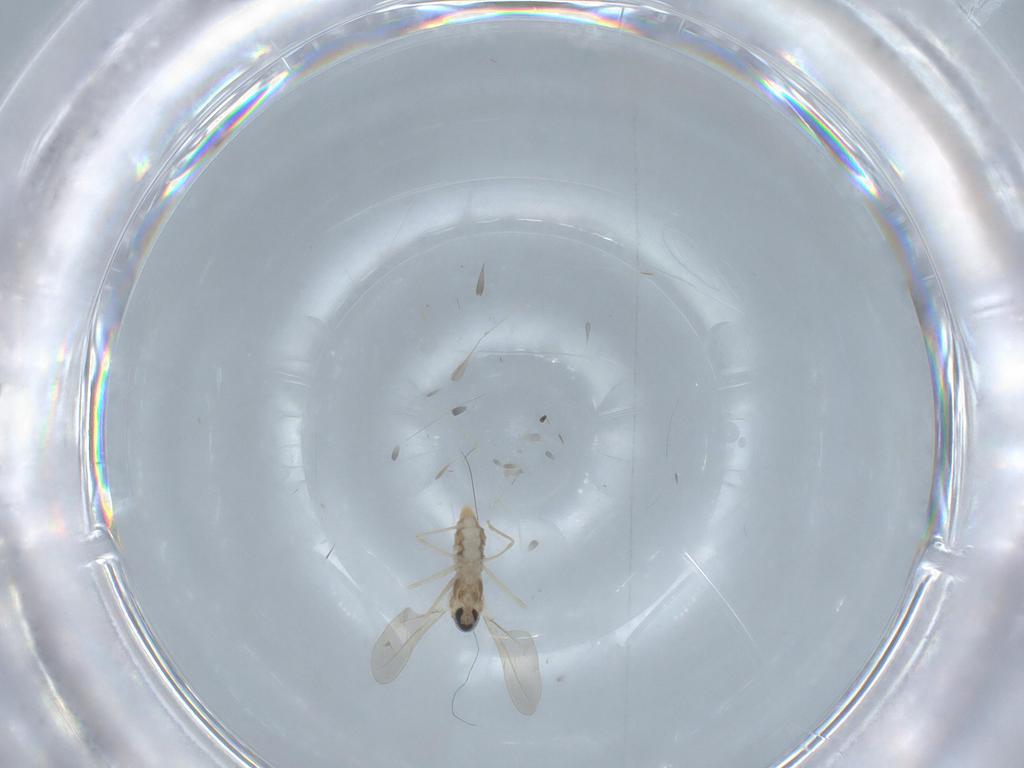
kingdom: Animalia
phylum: Arthropoda
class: Insecta
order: Diptera
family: Cecidomyiidae
